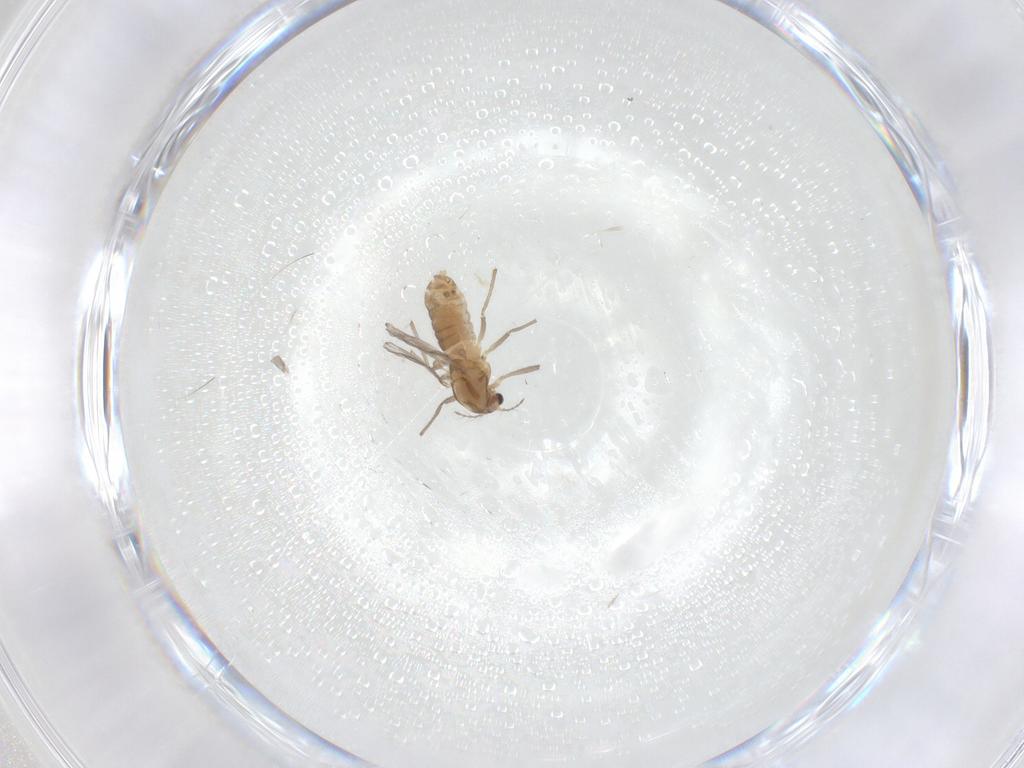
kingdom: Animalia
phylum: Arthropoda
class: Insecta
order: Diptera
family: Chironomidae
